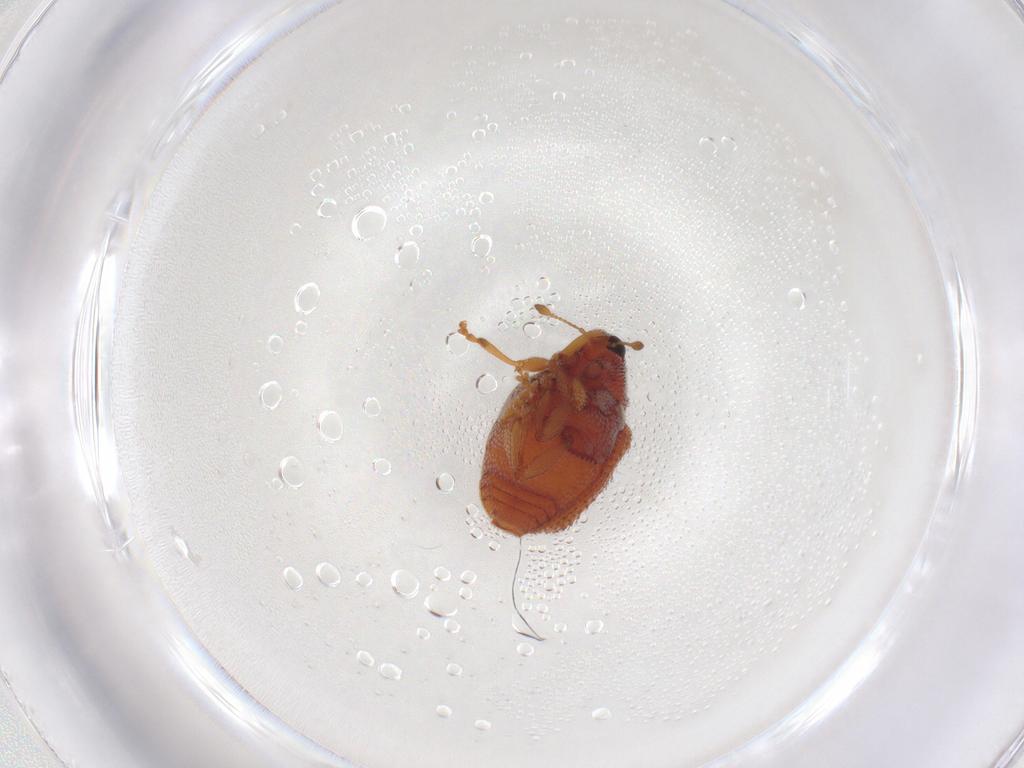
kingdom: Animalia
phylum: Arthropoda
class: Insecta
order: Coleoptera
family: Curculionidae
